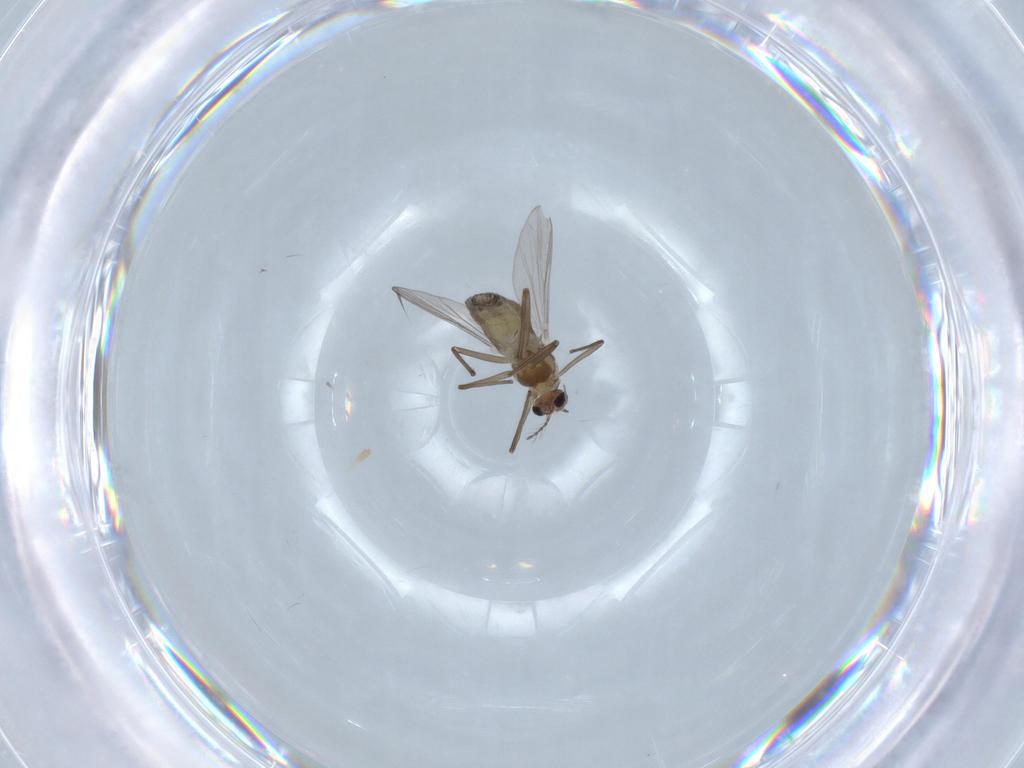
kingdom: Animalia
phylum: Arthropoda
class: Insecta
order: Diptera
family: Chironomidae
